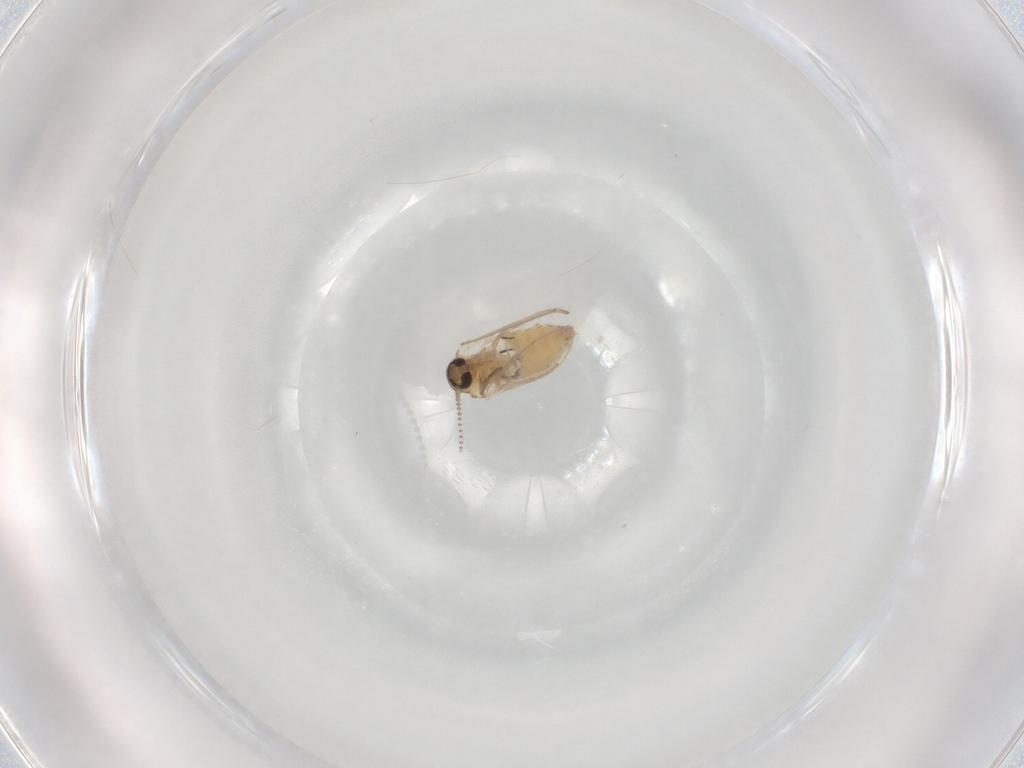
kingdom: Animalia
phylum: Arthropoda
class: Insecta
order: Diptera
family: Psychodidae
